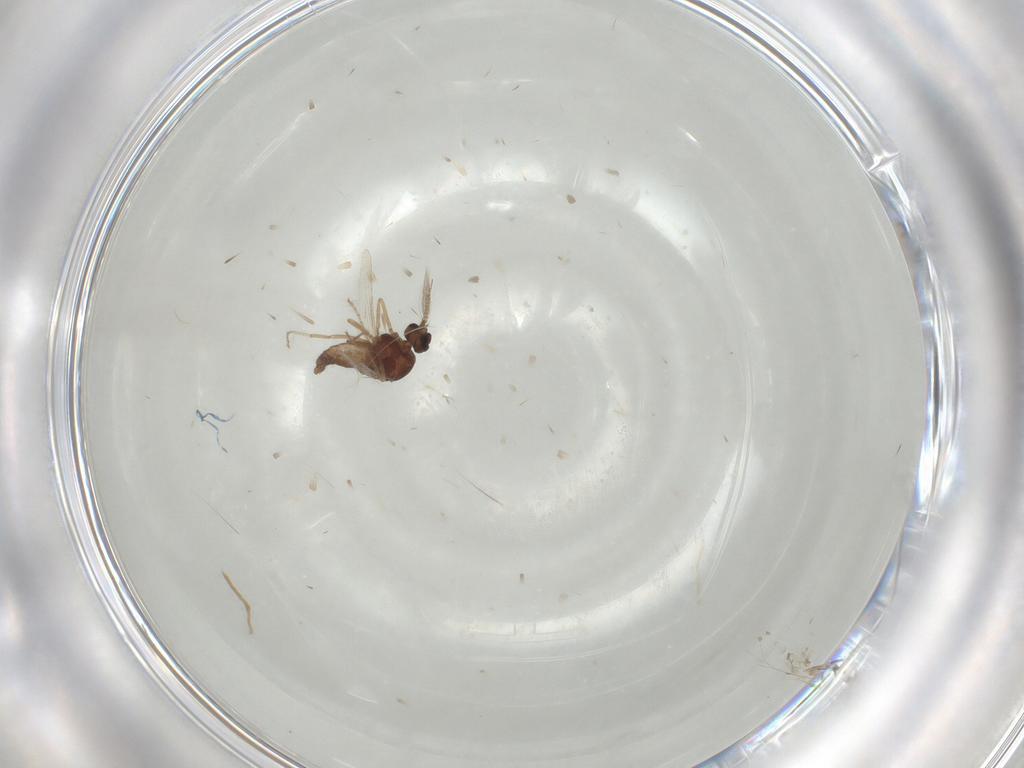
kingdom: Animalia
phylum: Arthropoda
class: Insecta
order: Diptera
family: Ceratopogonidae
